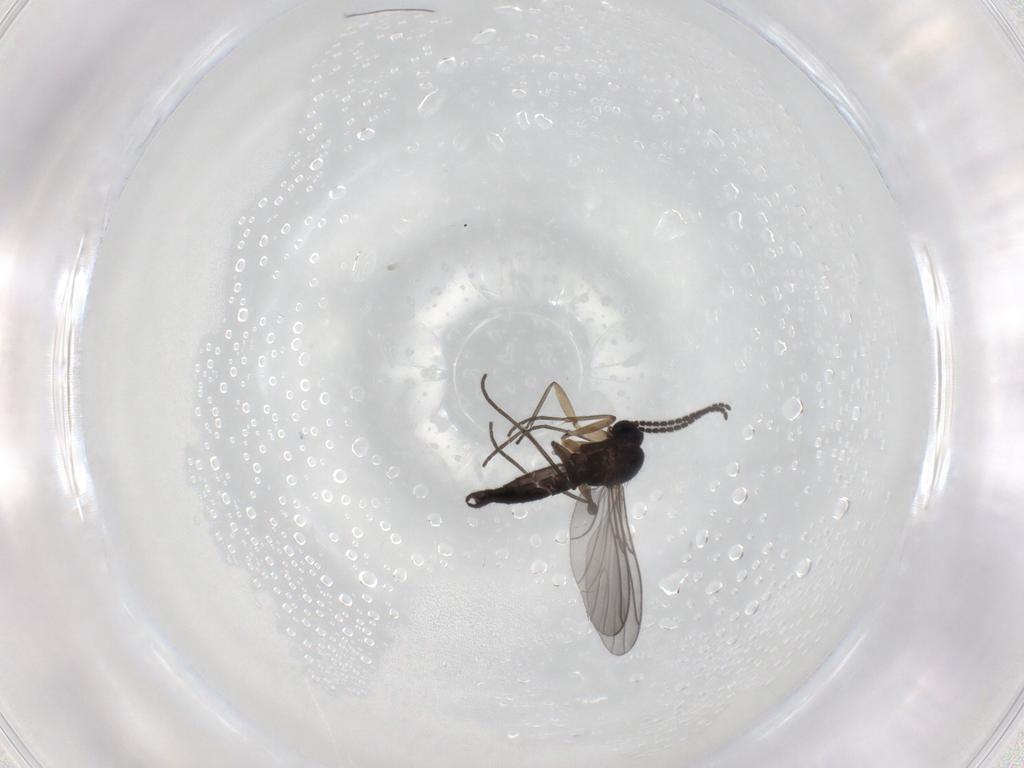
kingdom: Animalia
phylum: Arthropoda
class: Insecta
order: Diptera
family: Sciaridae
